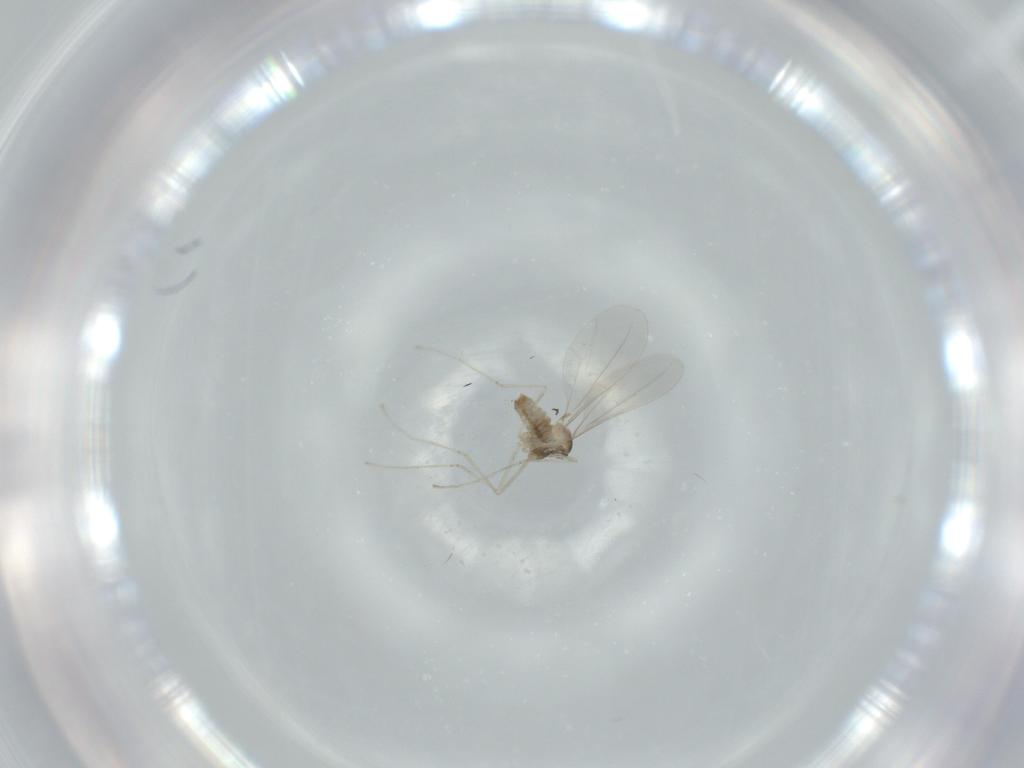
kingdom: Animalia
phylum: Arthropoda
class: Insecta
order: Diptera
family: Cecidomyiidae
